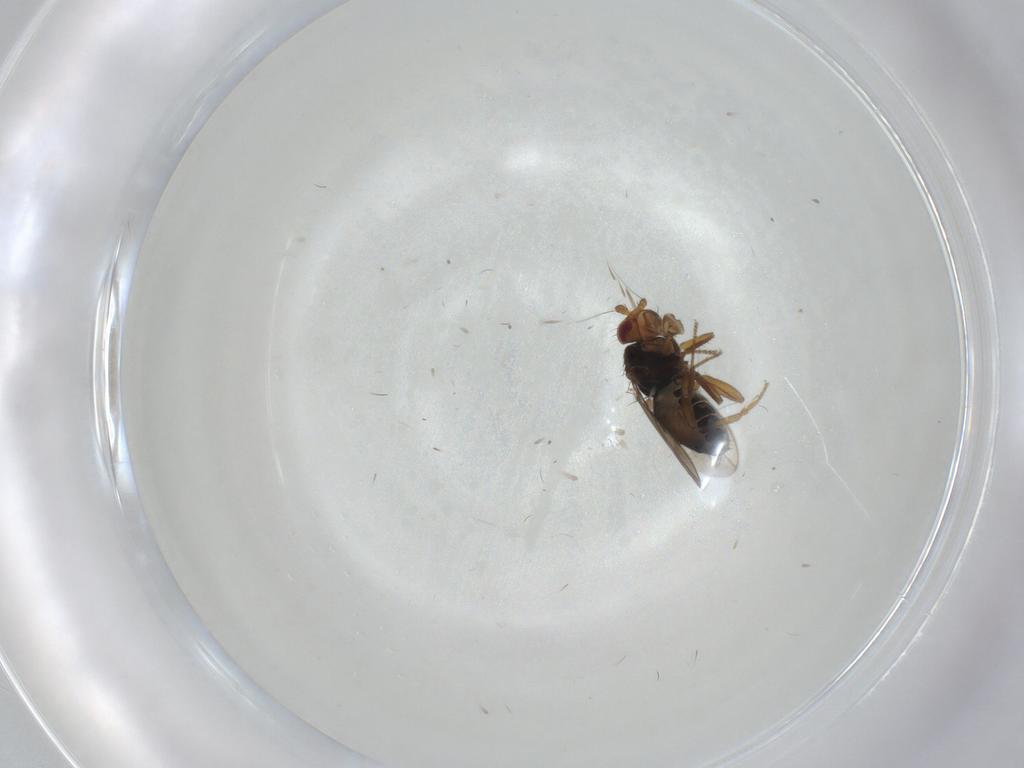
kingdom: Animalia
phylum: Arthropoda
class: Insecta
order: Diptera
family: Sphaeroceridae
